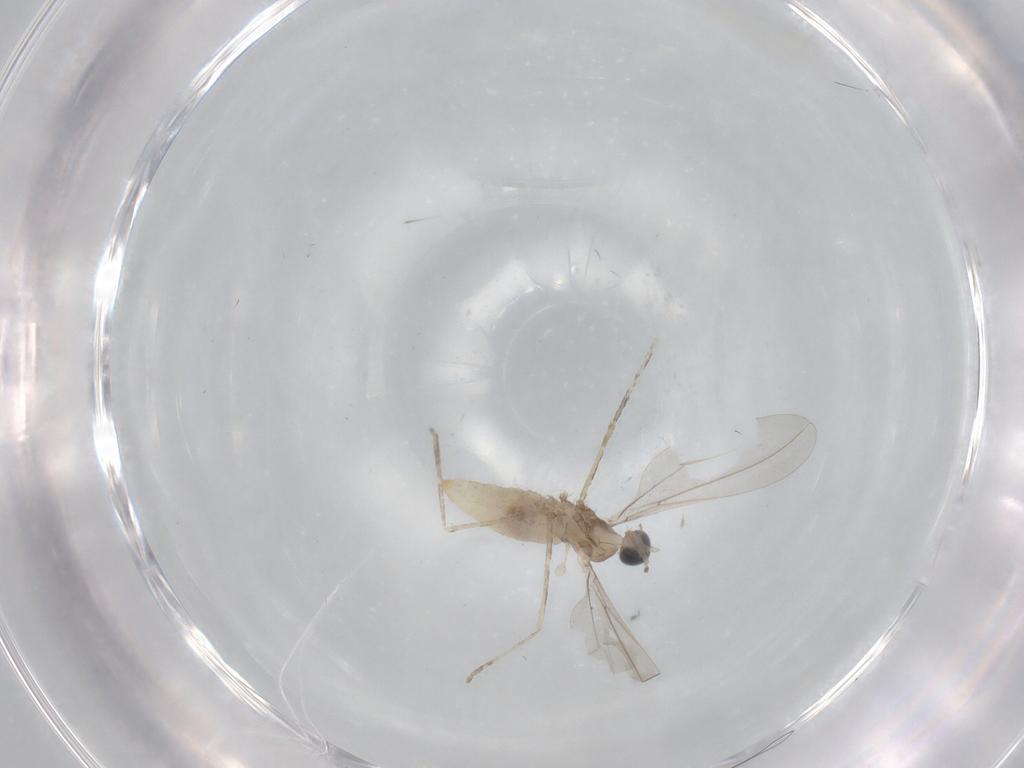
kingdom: Animalia
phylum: Arthropoda
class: Insecta
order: Diptera
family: Cecidomyiidae
